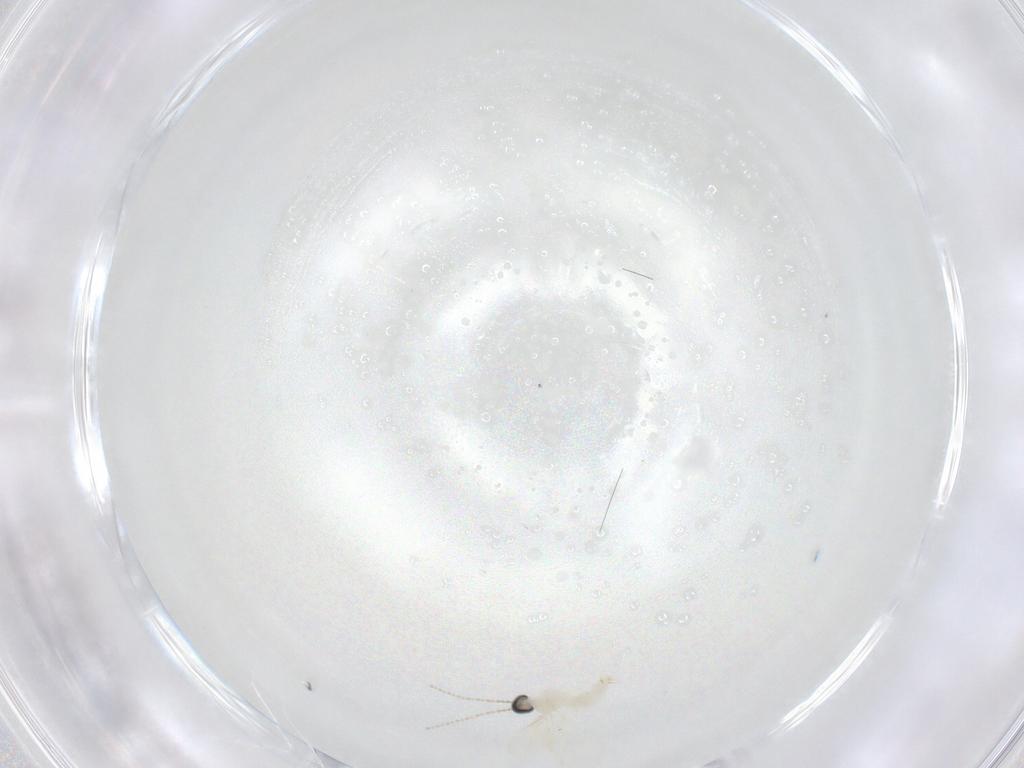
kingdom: Animalia
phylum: Arthropoda
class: Insecta
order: Diptera
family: Cecidomyiidae
